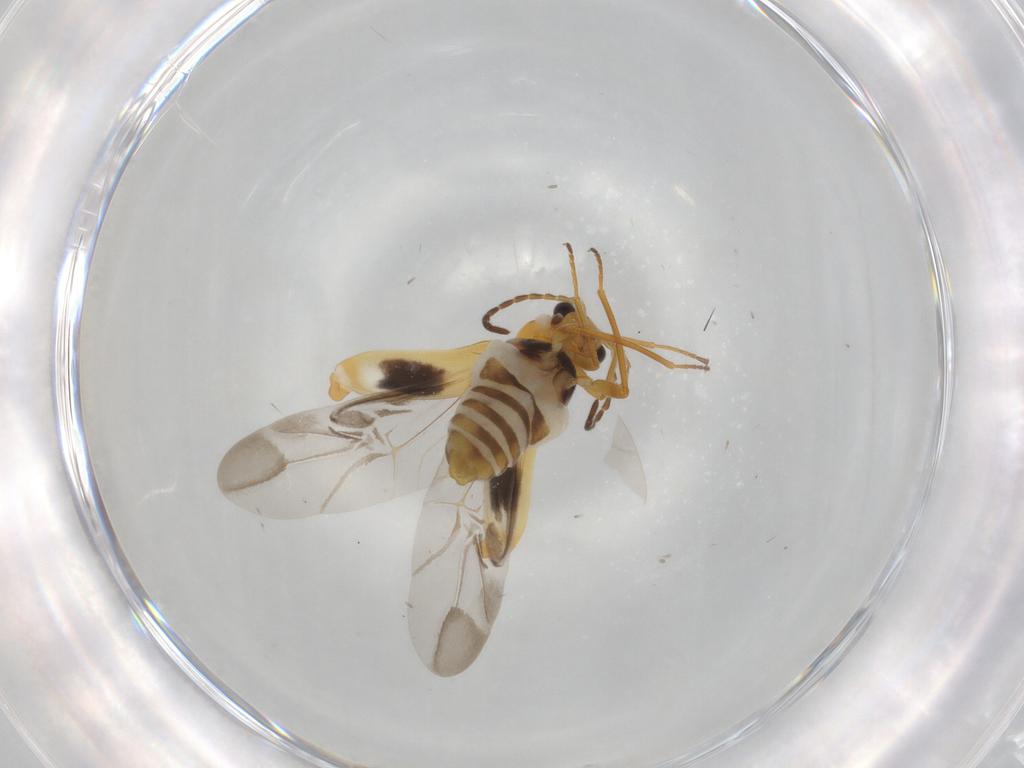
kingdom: Animalia
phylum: Arthropoda
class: Insecta
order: Coleoptera
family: Melyridae
